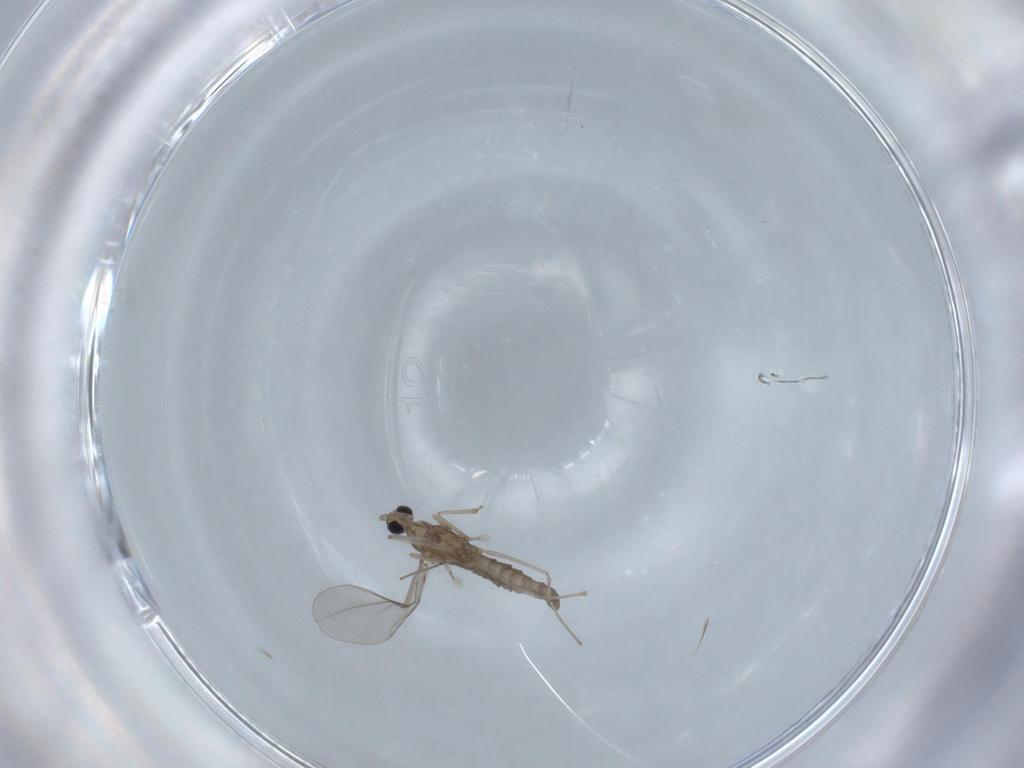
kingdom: Animalia
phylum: Arthropoda
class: Insecta
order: Diptera
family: Cecidomyiidae
